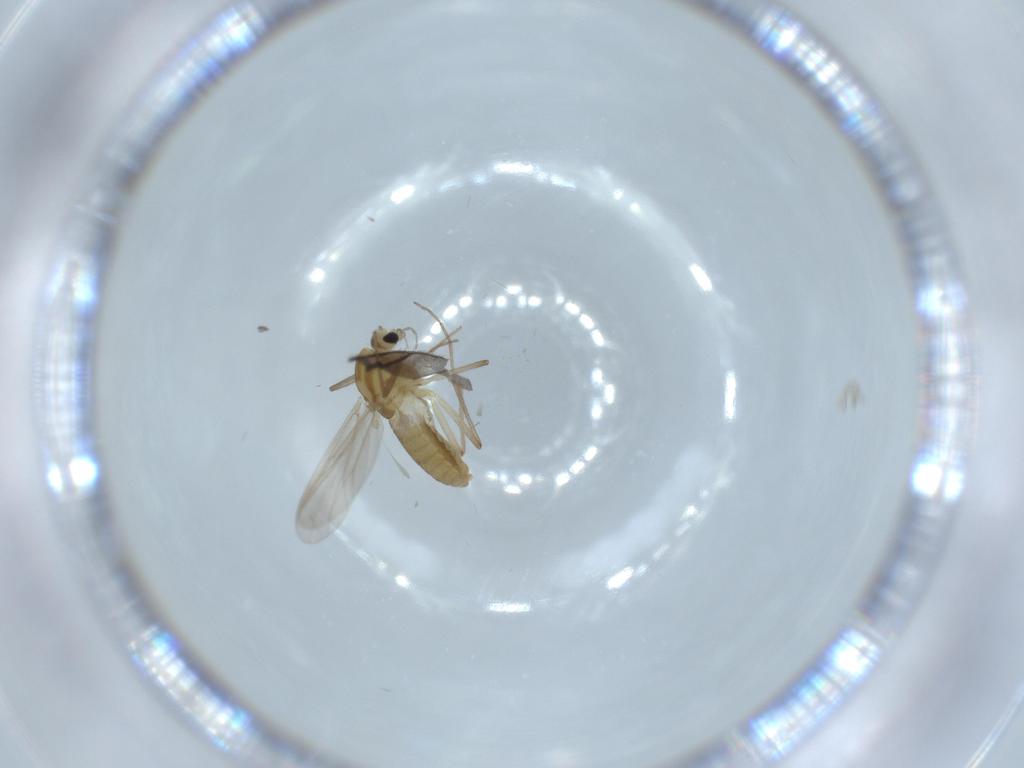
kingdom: Animalia
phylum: Arthropoda
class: Insecta
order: Diptera
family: Chironomidae
